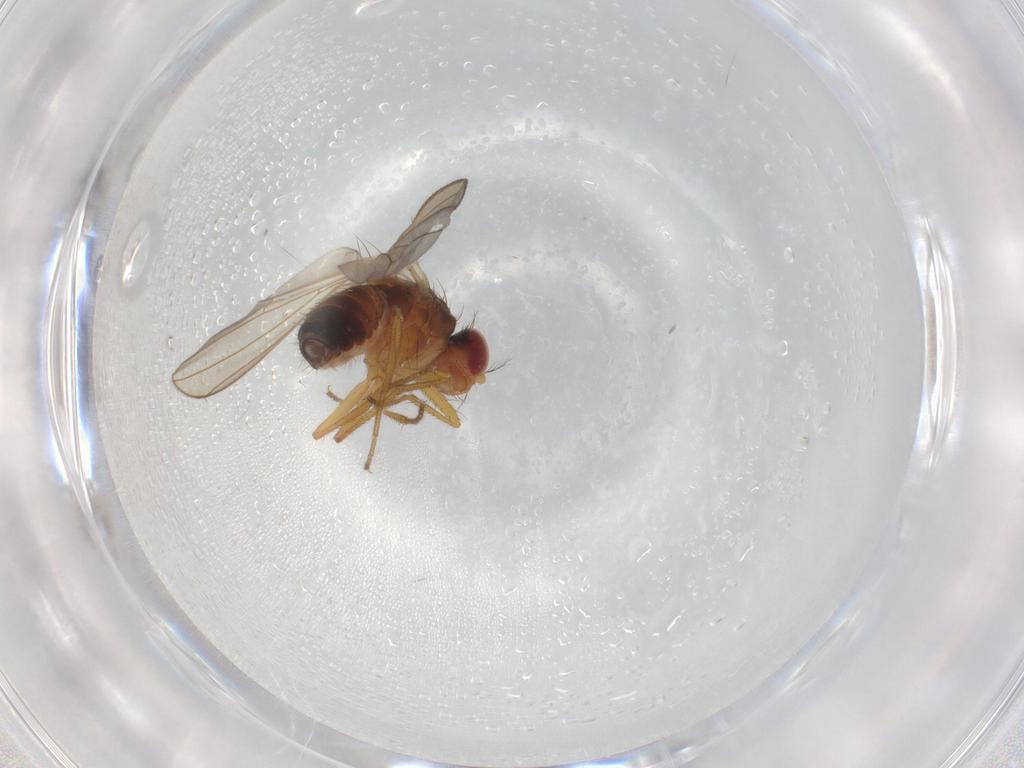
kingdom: Animalia
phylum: Arthropoda
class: Insecta
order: Diptera
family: Drosophilidae
